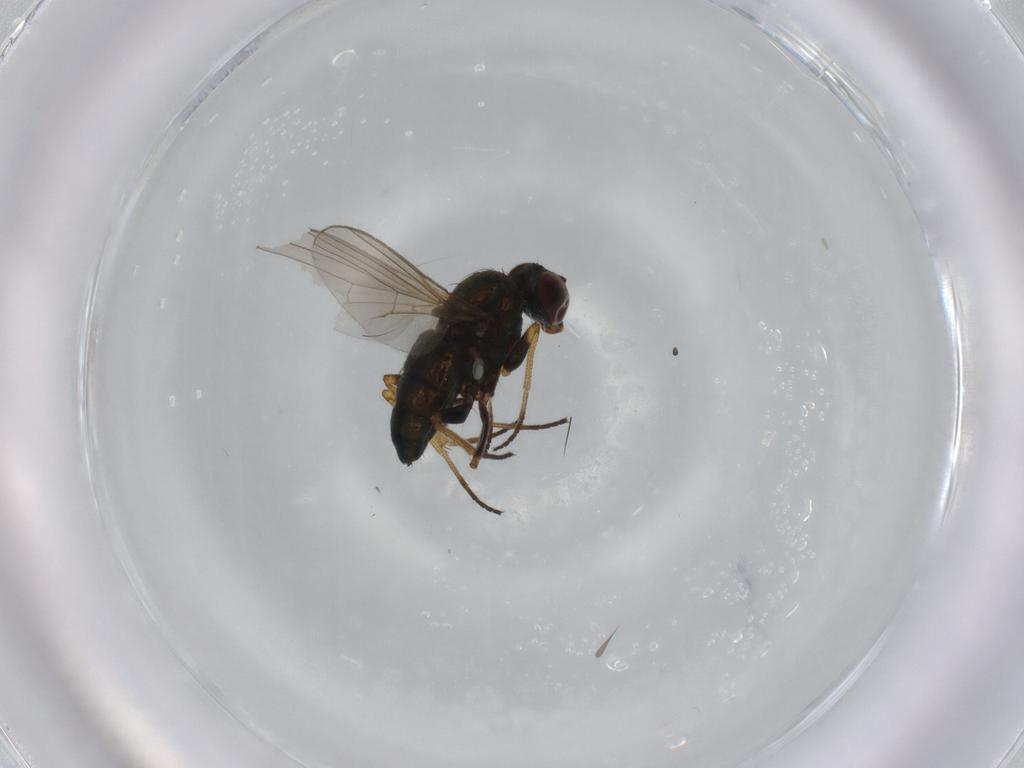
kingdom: Animalia
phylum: Arthropoda
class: Insecta
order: Diptera
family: Dolichopodidae
